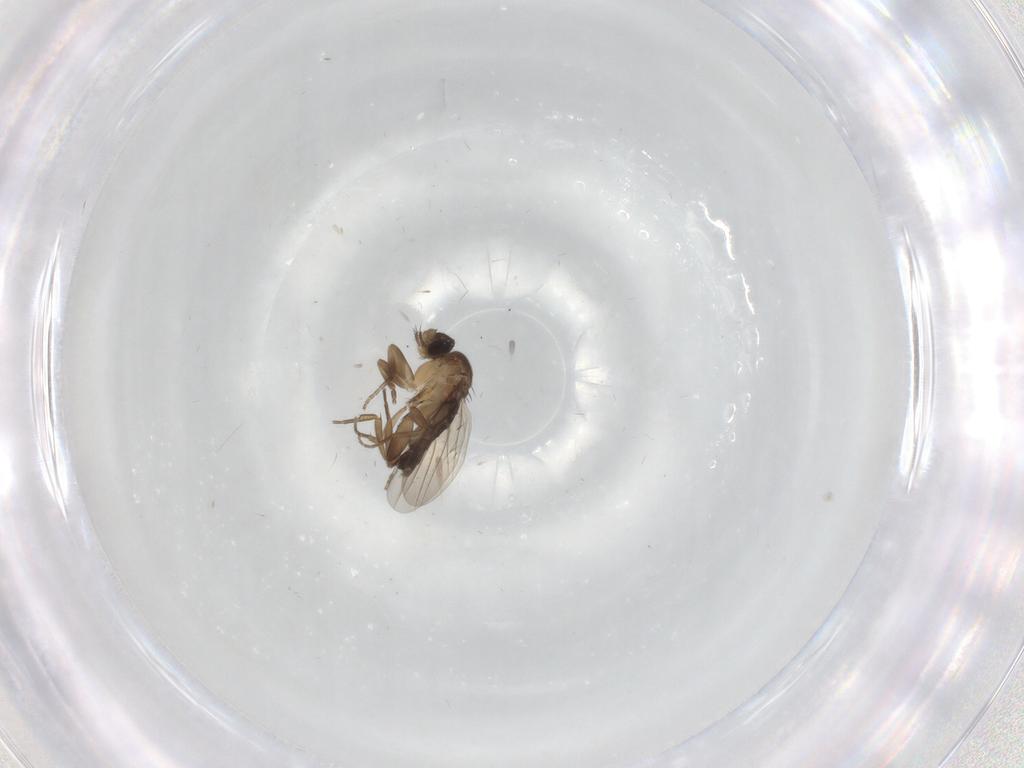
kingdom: Animalia
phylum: Arthropoda
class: Insecta
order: Diptera
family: Phoridae
